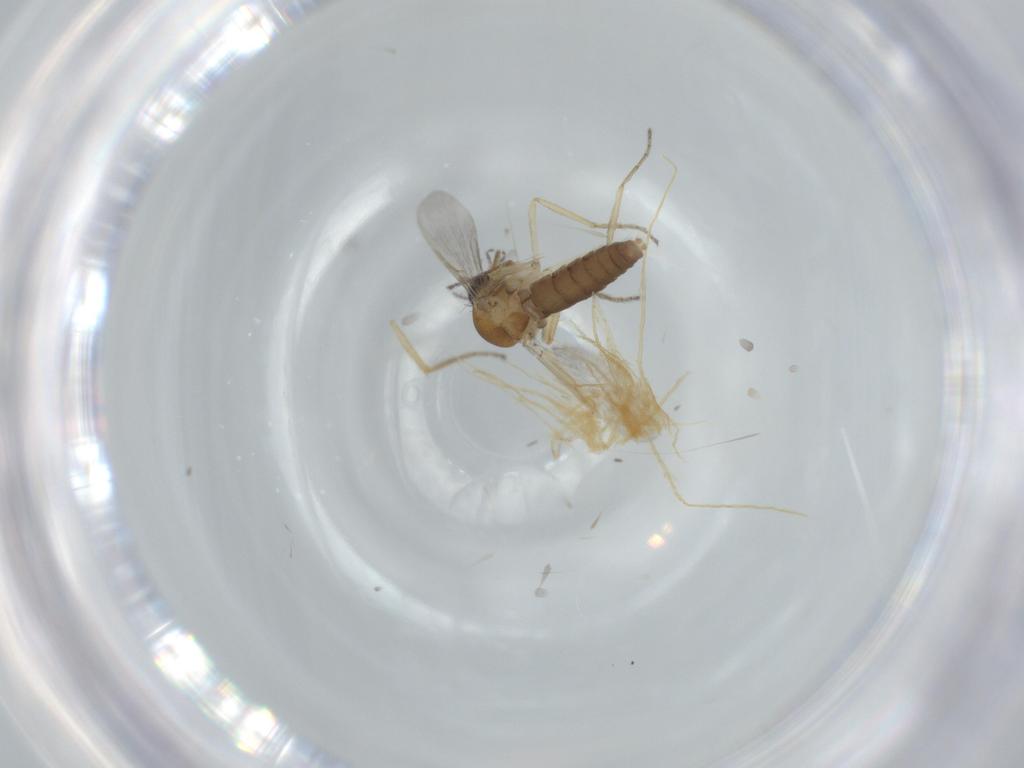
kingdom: Animalia
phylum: Arthropoda
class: Insecta
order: Diptera
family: Ceratopogonidae
